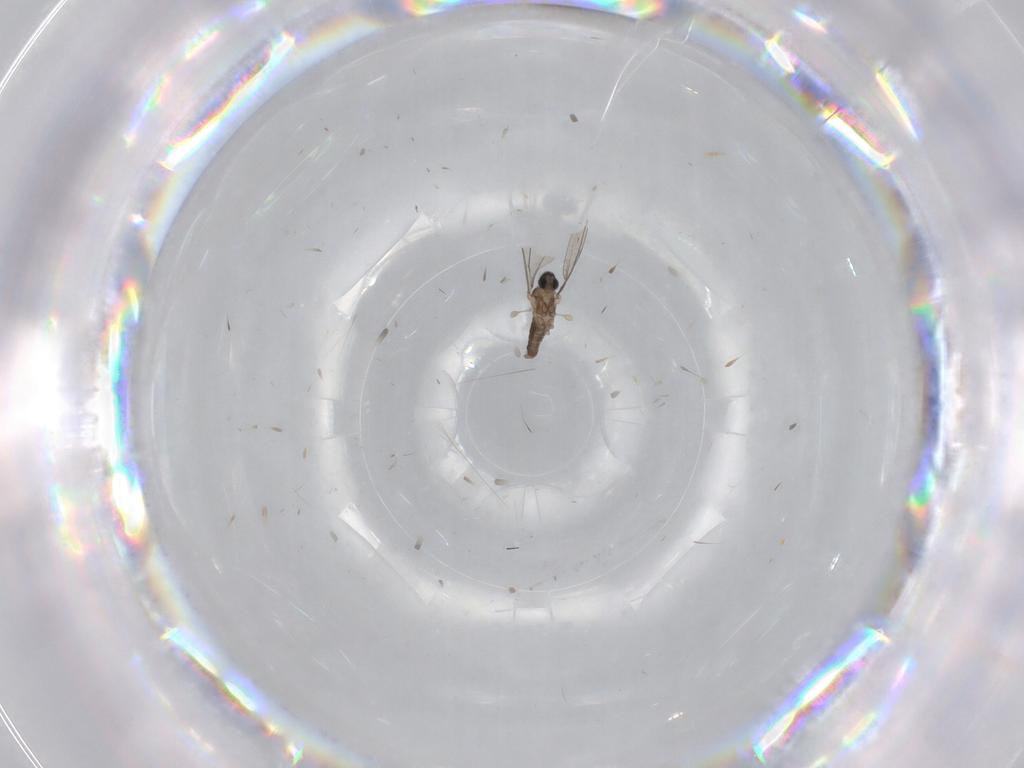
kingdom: Animalia
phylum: Arthropoda
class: Insecta
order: Diptera
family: Cecidomyiidae
